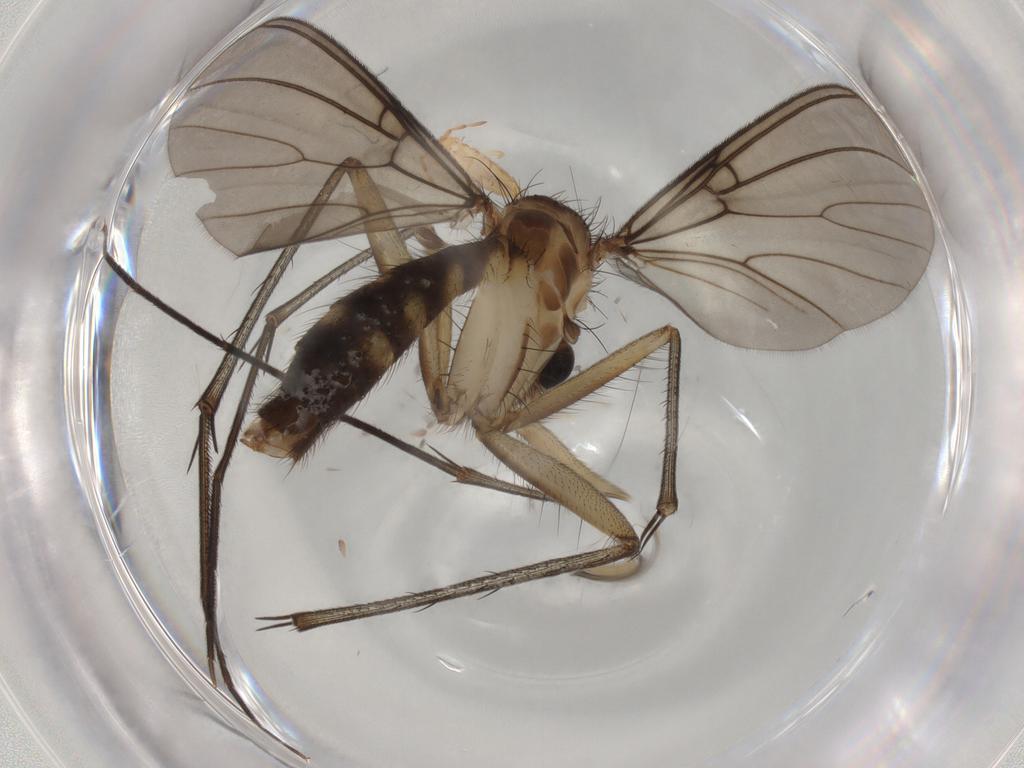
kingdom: Animalia
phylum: Arthropoda
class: Insecta
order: Diptera
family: Mycetophilidae
